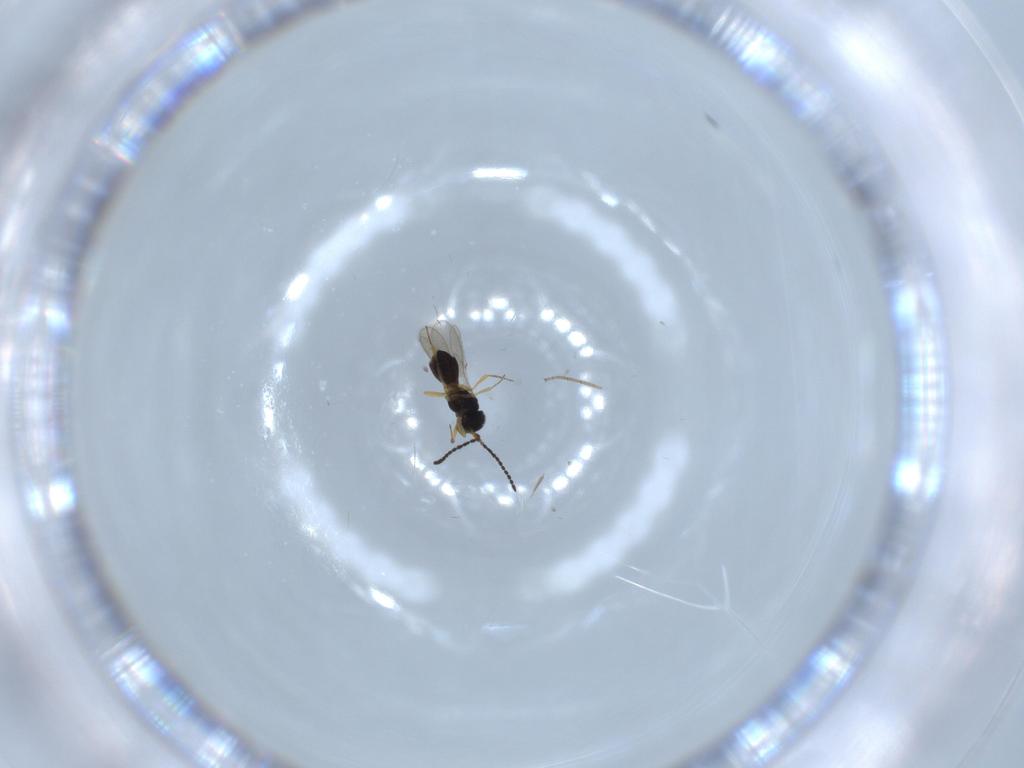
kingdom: Animalia
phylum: Arthropoda
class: Insecta
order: Hymenoptera
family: Scelionidae
